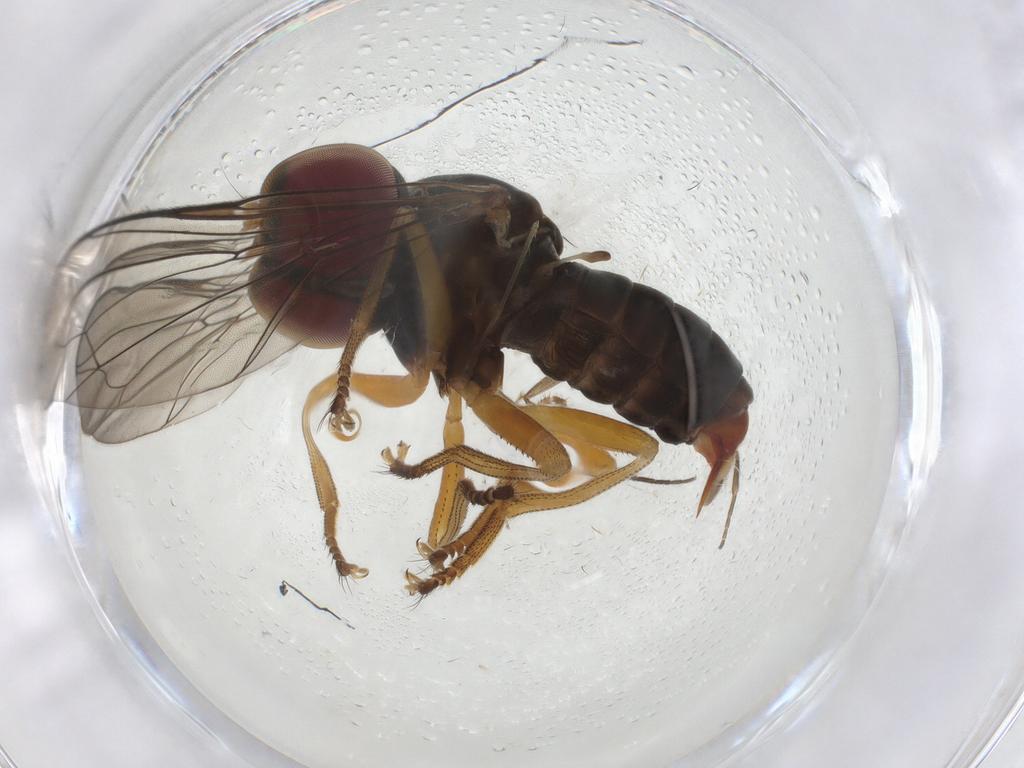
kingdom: Animalia
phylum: Arthropoda
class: Insecta
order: Diptera
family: Pipunculidae
